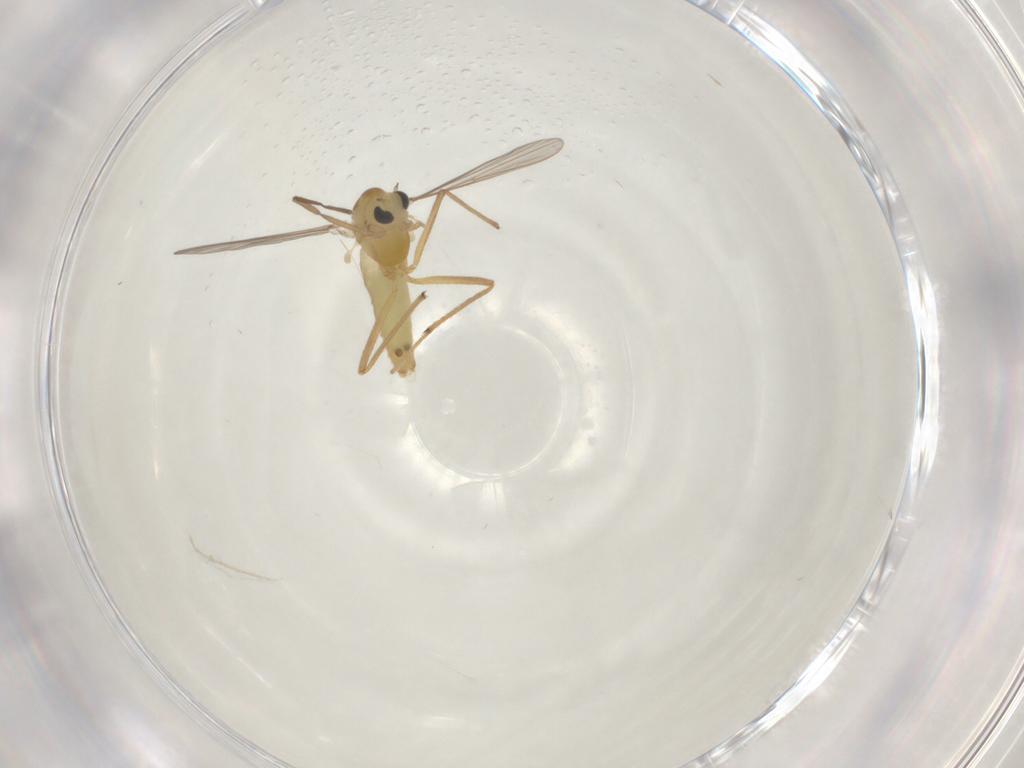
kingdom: Animalia
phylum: Arthropoda
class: Insecta
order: Diptera
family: Chironomidae
